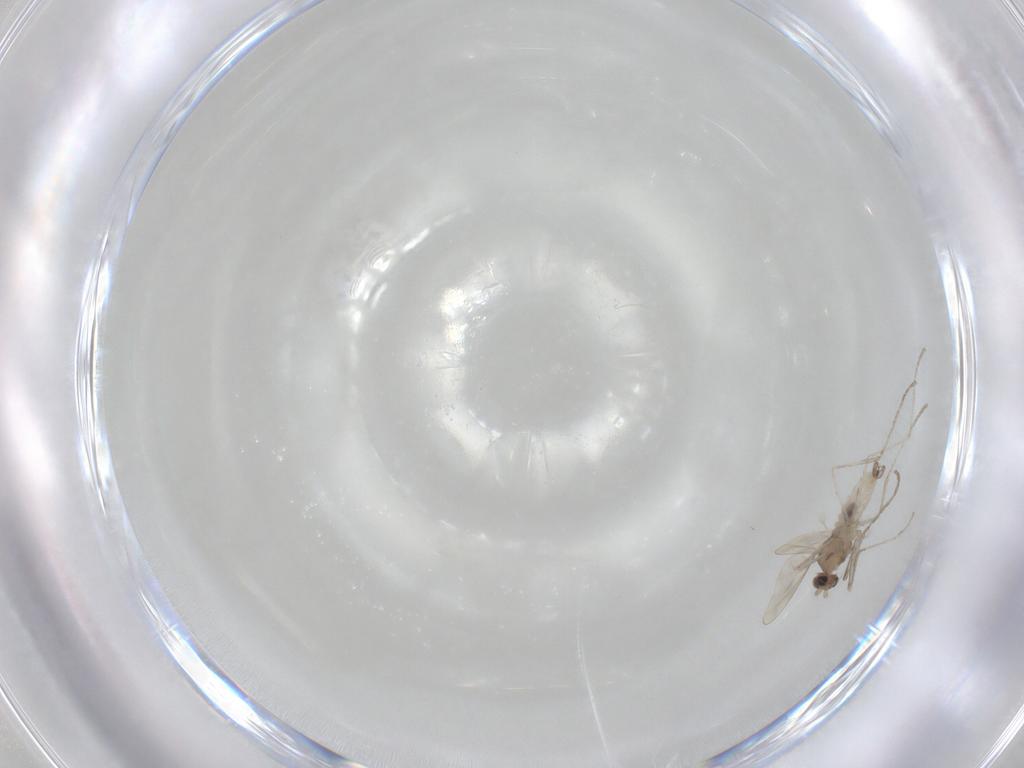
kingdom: Animalia
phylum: Arthropoda
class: Insecta
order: Diptera
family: Cecidomyiidae
